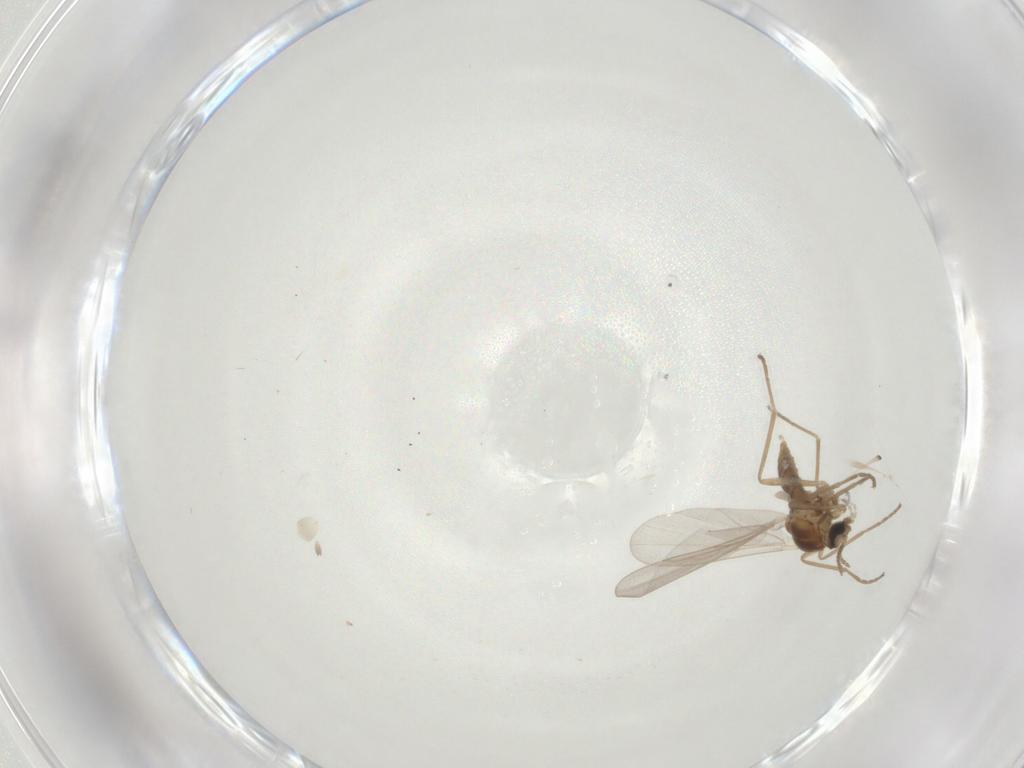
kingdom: Animalia
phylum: Arthropoda
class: Insecta
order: Diptera
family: Cecidomyiidae
